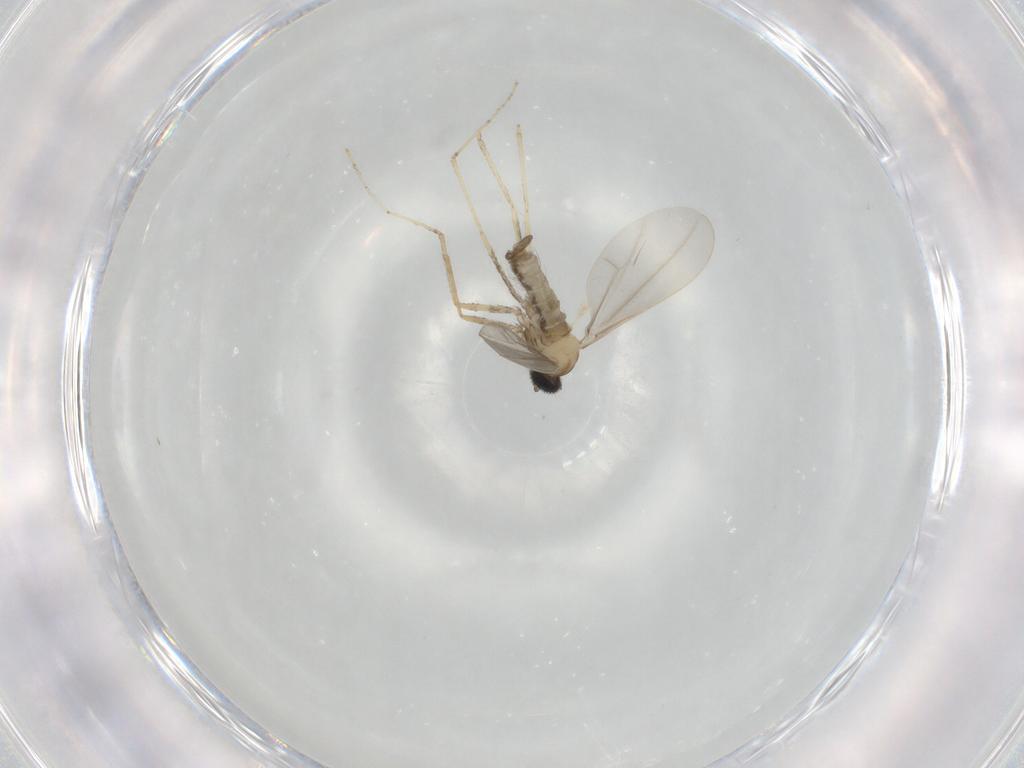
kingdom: Animalia
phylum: Arthropoda
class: Insecta
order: Diptera
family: Cecidomyiidae
